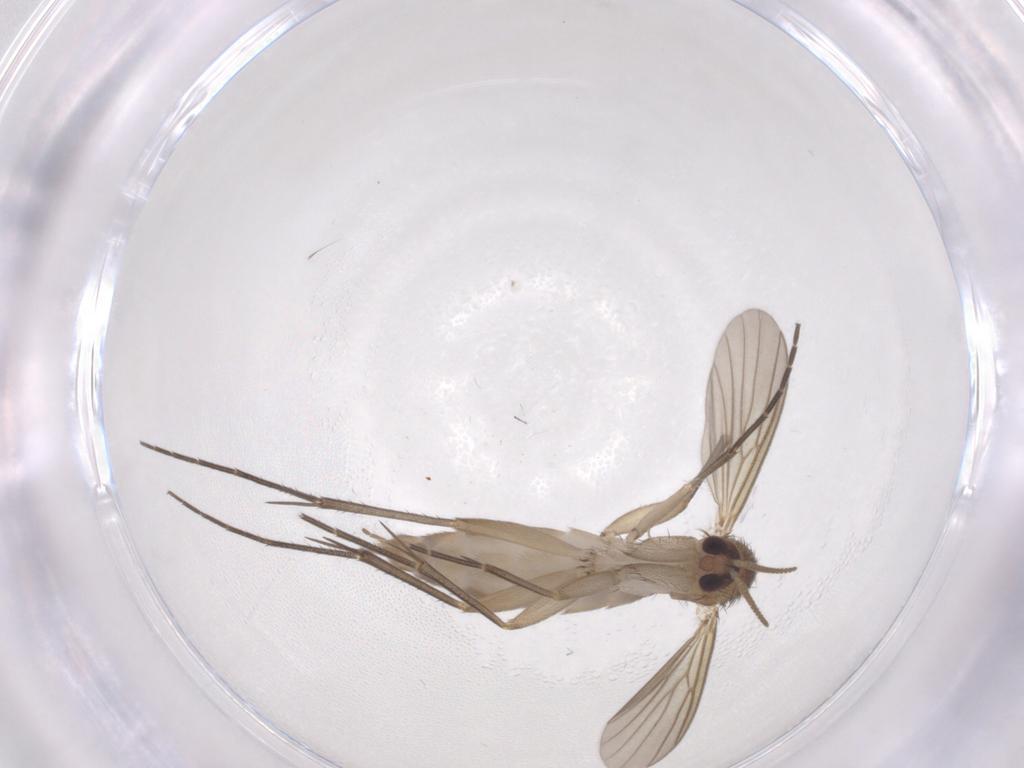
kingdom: Animalia
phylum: Arthropoda
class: Insecta
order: Diptera
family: Mycetophilidae
